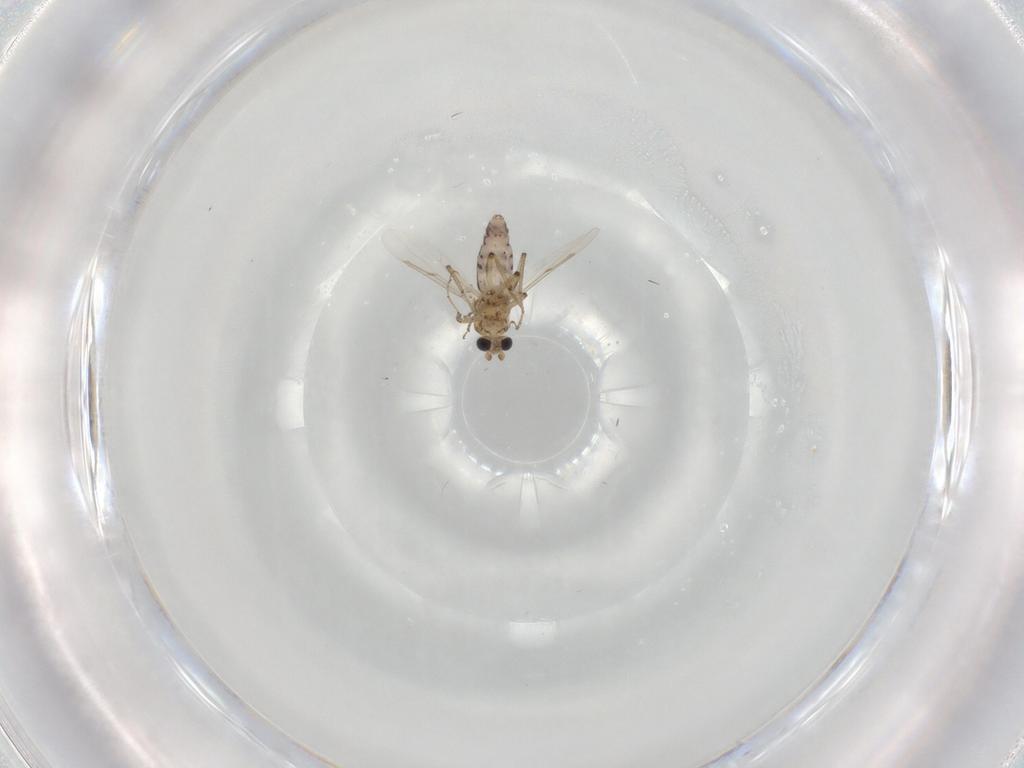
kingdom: Animalia
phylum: Arthropoda
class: Insecta
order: Diptera
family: Ceratopogonidae
